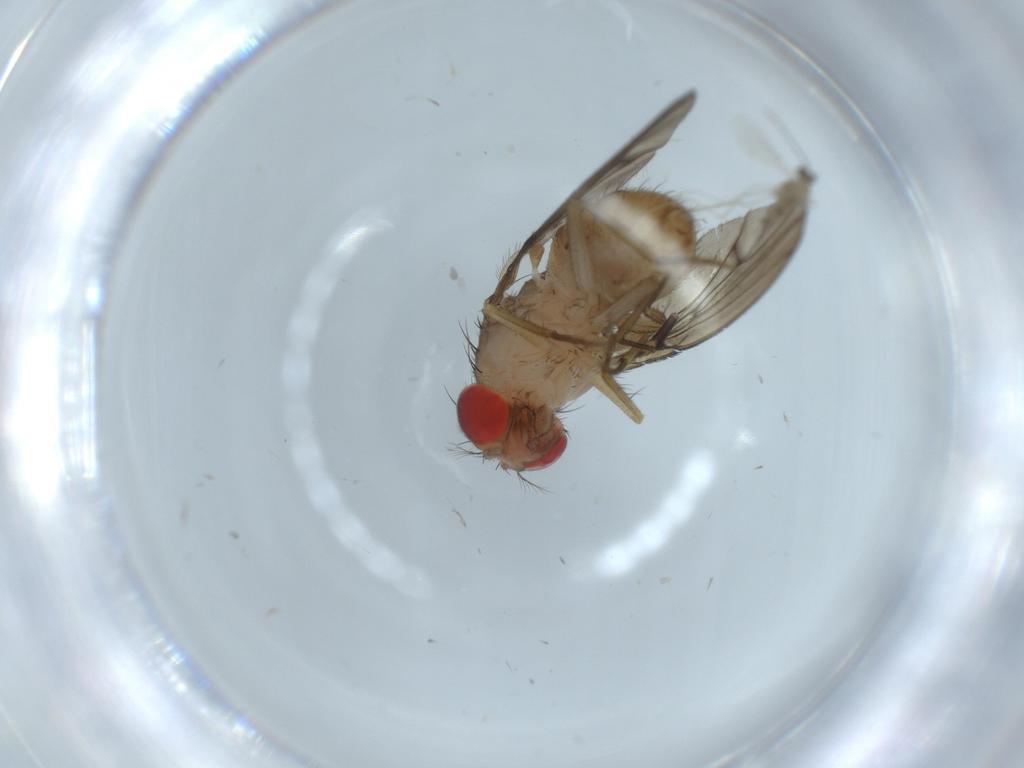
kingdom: Animalia
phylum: Arthropoda
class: Insecta
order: Diptera
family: Drosophilidae
